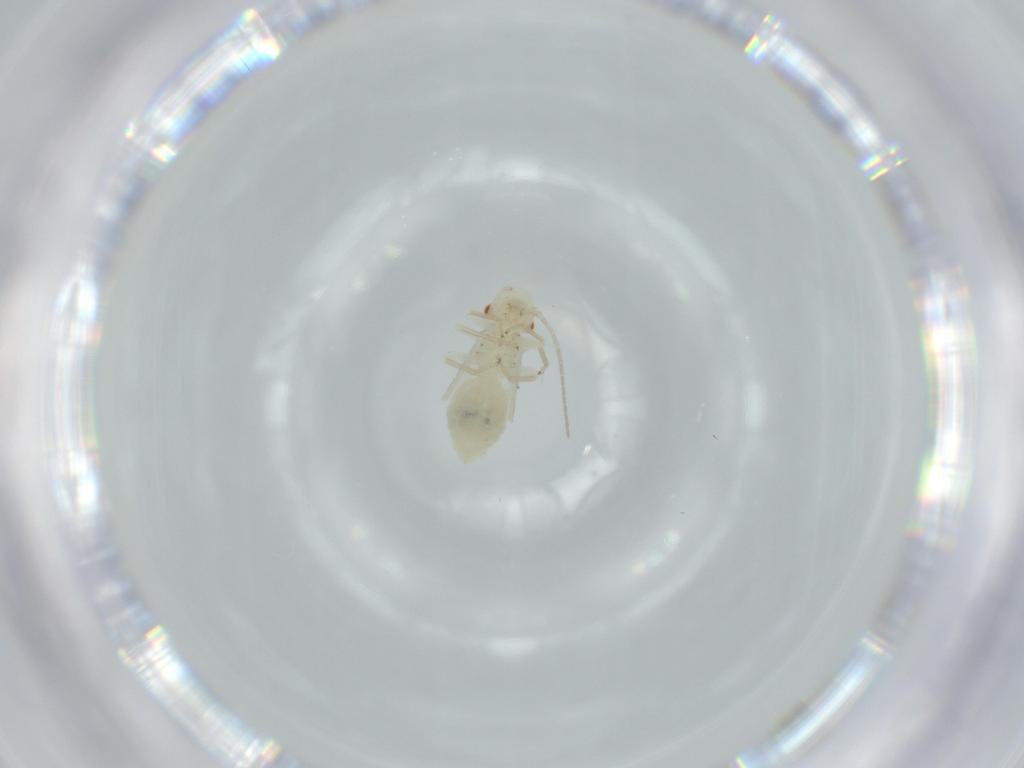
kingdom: Animalia
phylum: Arthropoda
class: Insecta
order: Psocodea
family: Caeciliusidae
